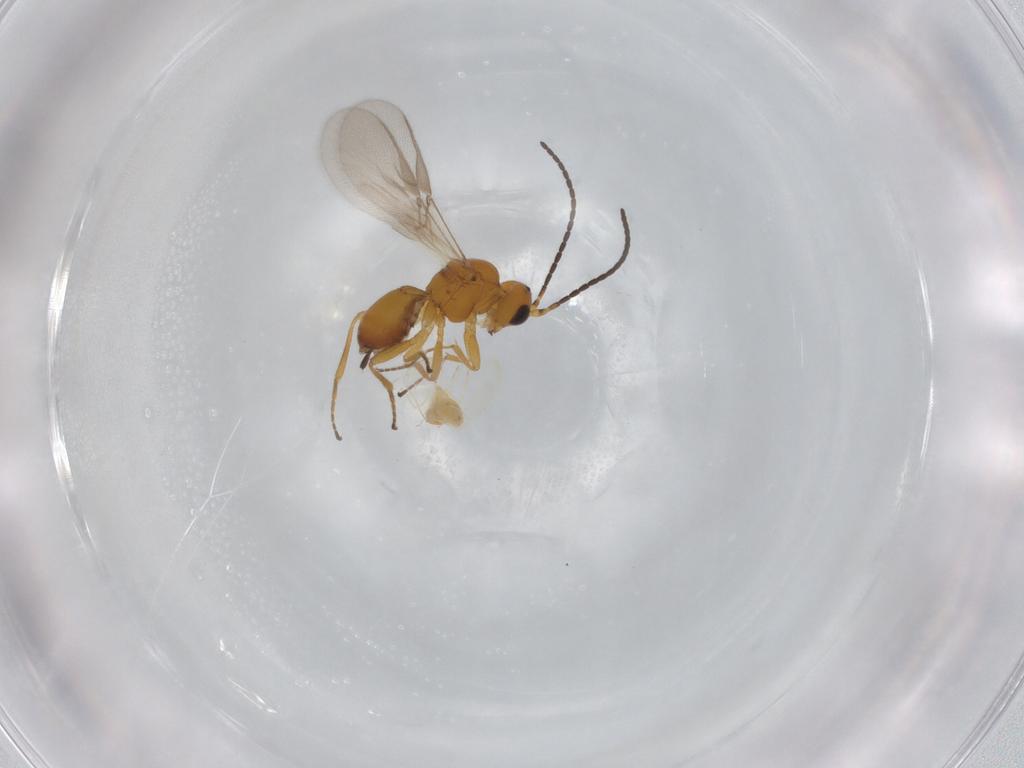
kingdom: Animalia
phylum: Arthropoda
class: Insecta
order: Hymenoptera
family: Braconidae
